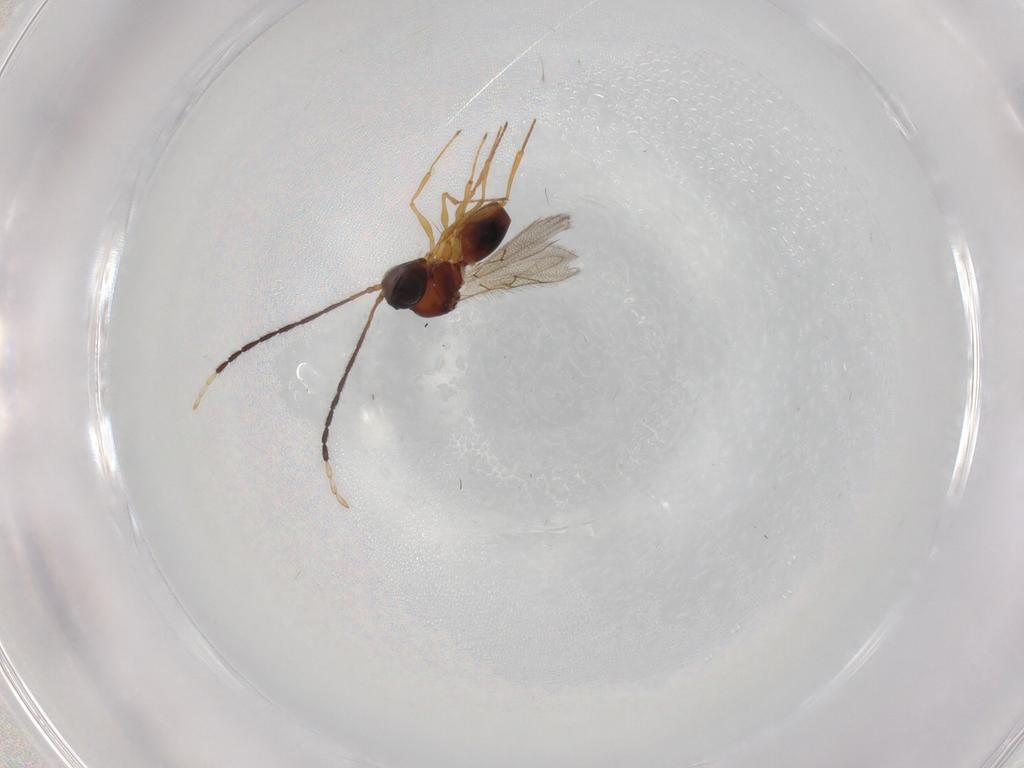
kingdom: Animalia
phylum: Arthropoda
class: Insecta
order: Hymenoptera
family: Figitidae
